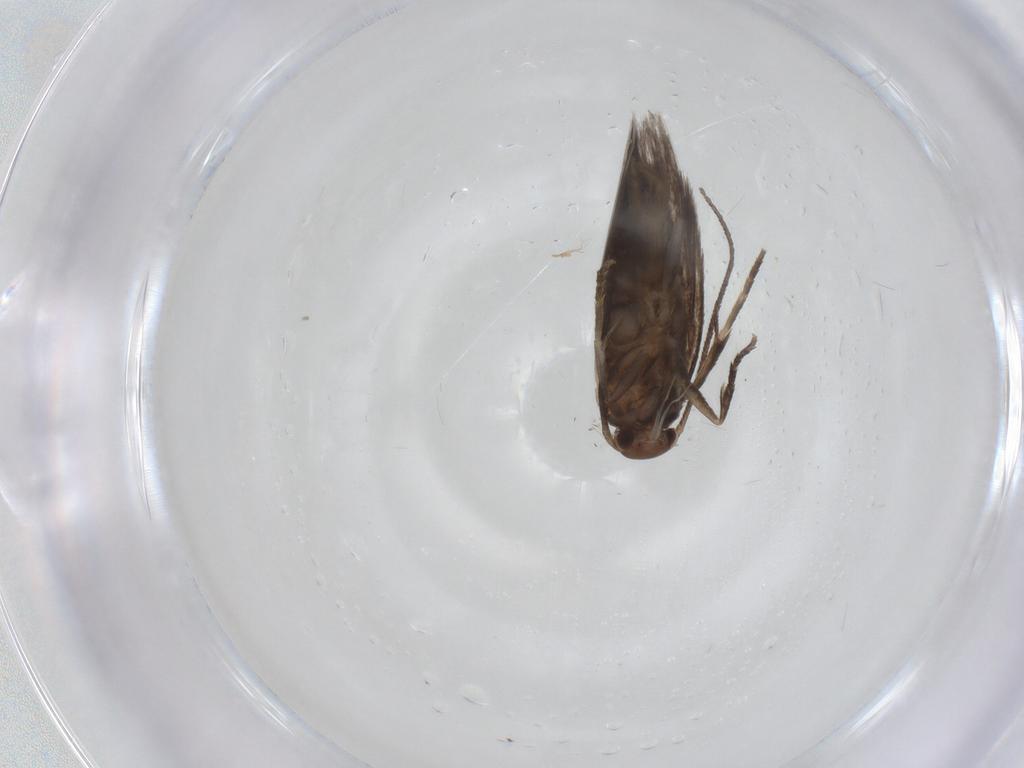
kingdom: Animalia
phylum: Arthropoda
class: Insecta
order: Lepidoptera
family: Elachistidae
